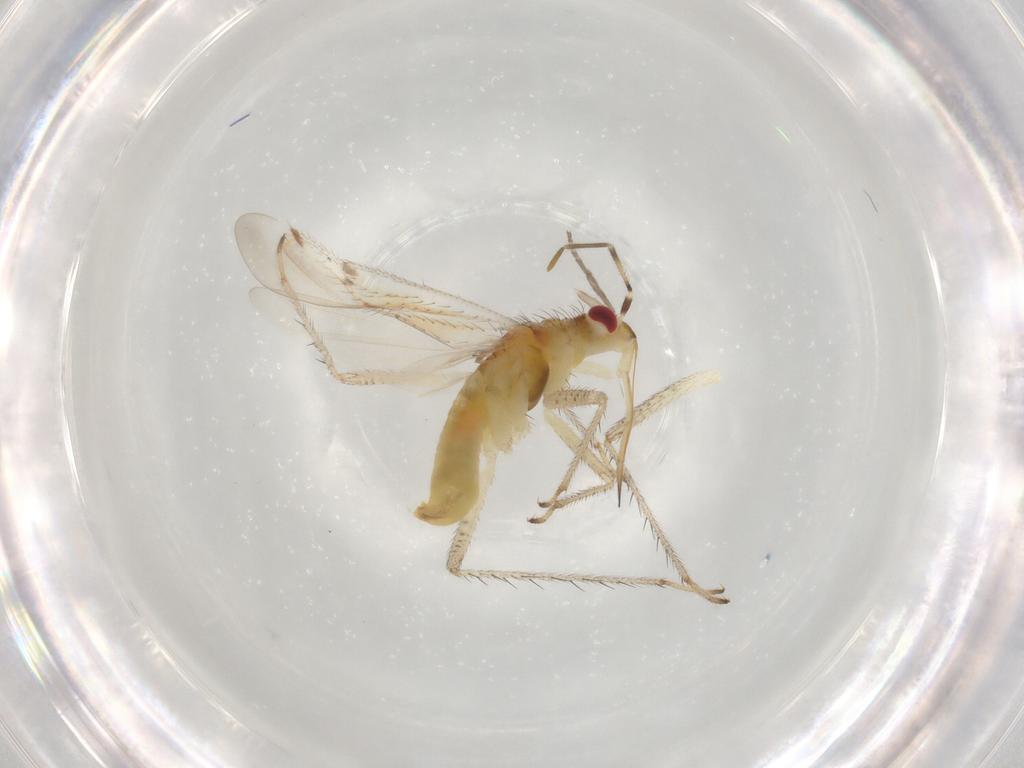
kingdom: Animalia
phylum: Arthropoda
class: Insecta
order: Hemiptera
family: Miridae
